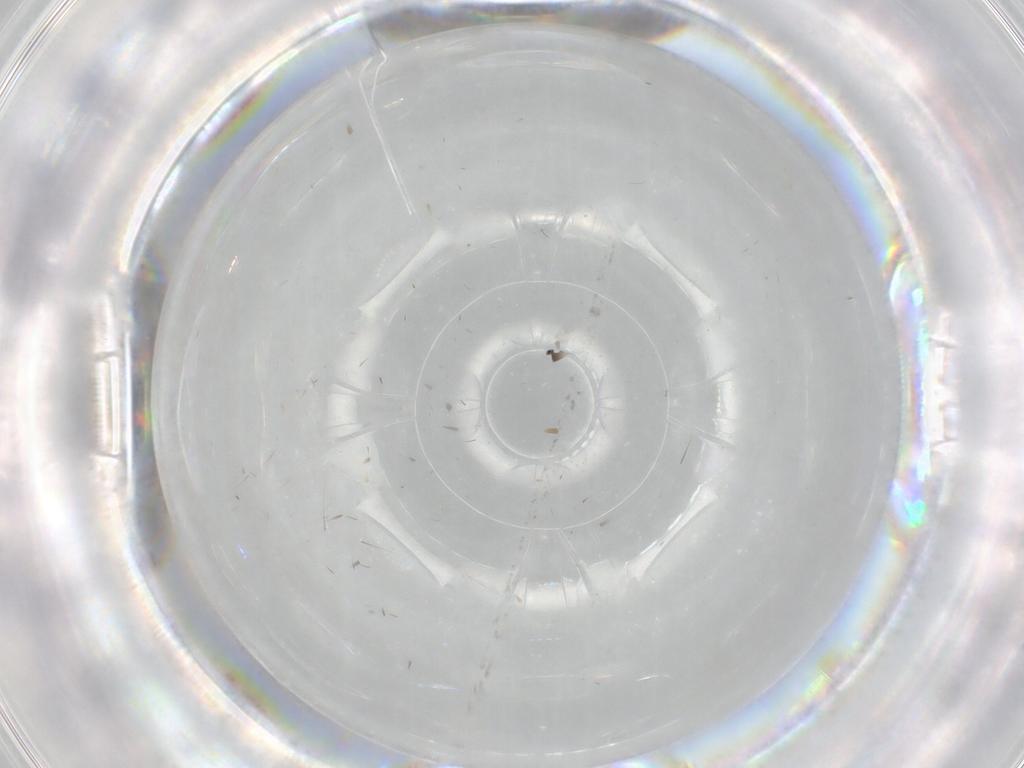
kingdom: Animalia
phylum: Arthropoda
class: Insecta
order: Diptera
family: Chironomidae
